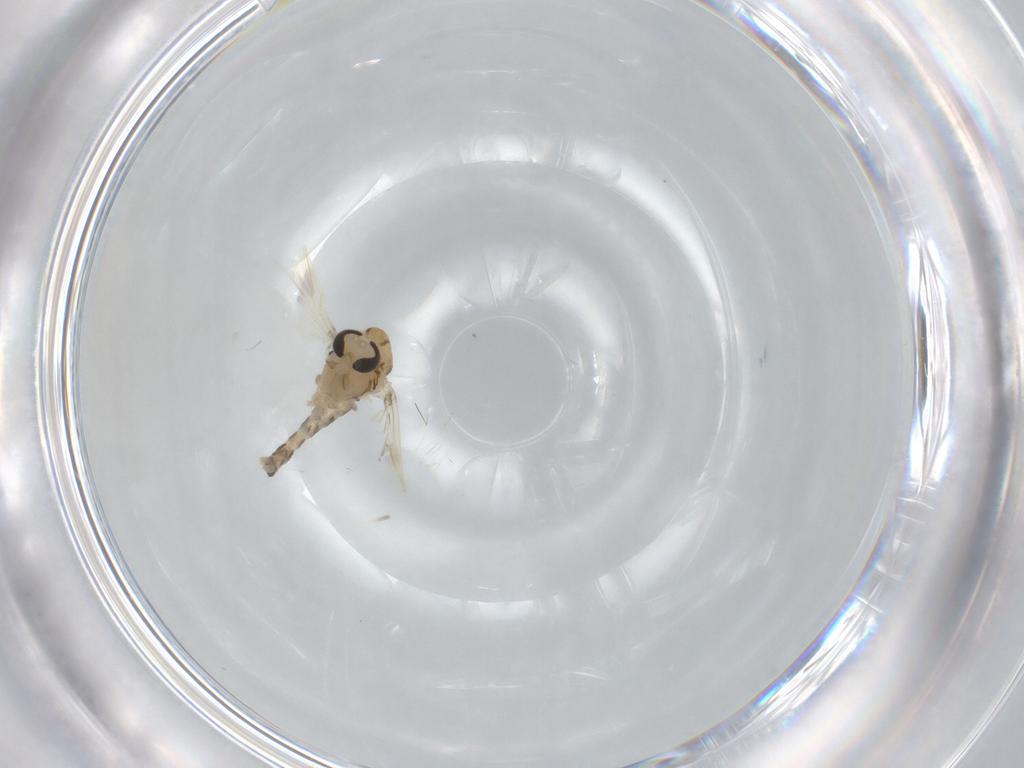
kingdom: Animalia
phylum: Arthropoda
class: Insecta
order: Diptera
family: Chironomidae
